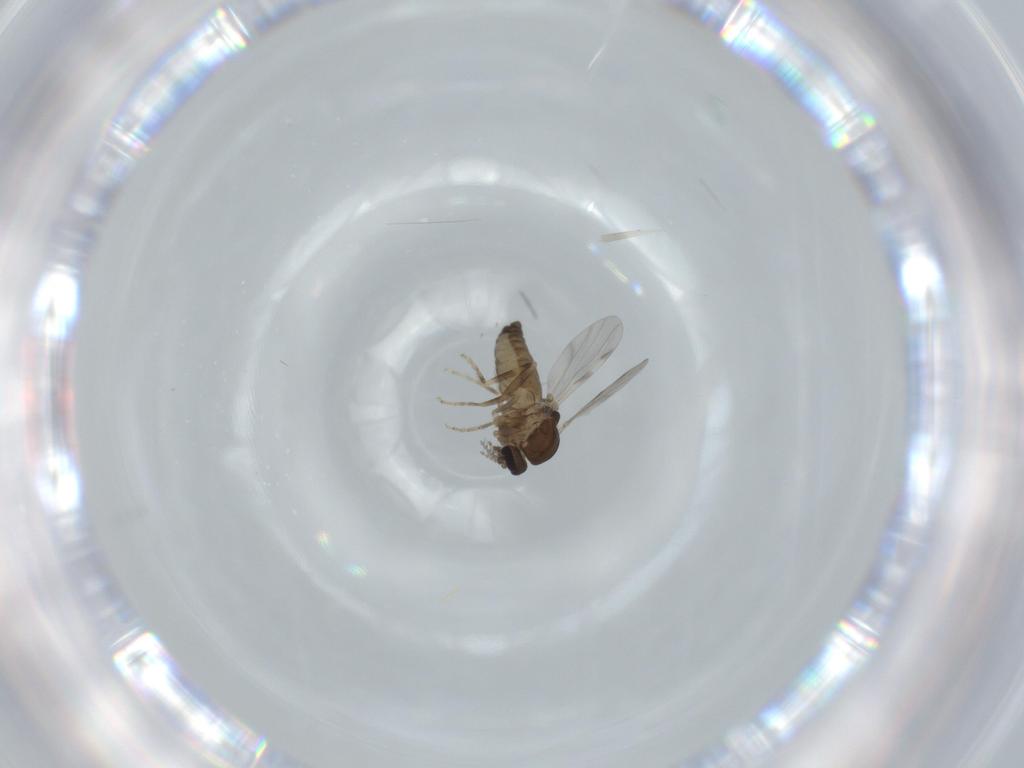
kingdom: Animalia
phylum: Arthropoda
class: Insecta
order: Diptera
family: Ceratopogonidae
